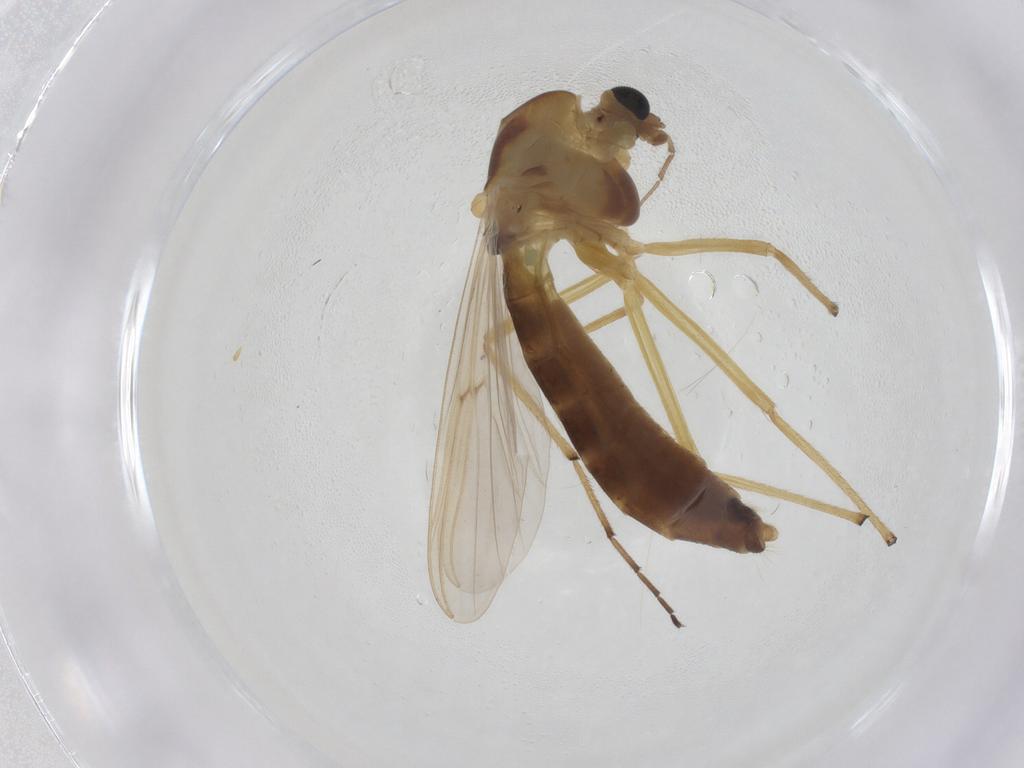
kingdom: Animalia
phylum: Arthropoda
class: Insecta
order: Diptera
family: Chironomidae
